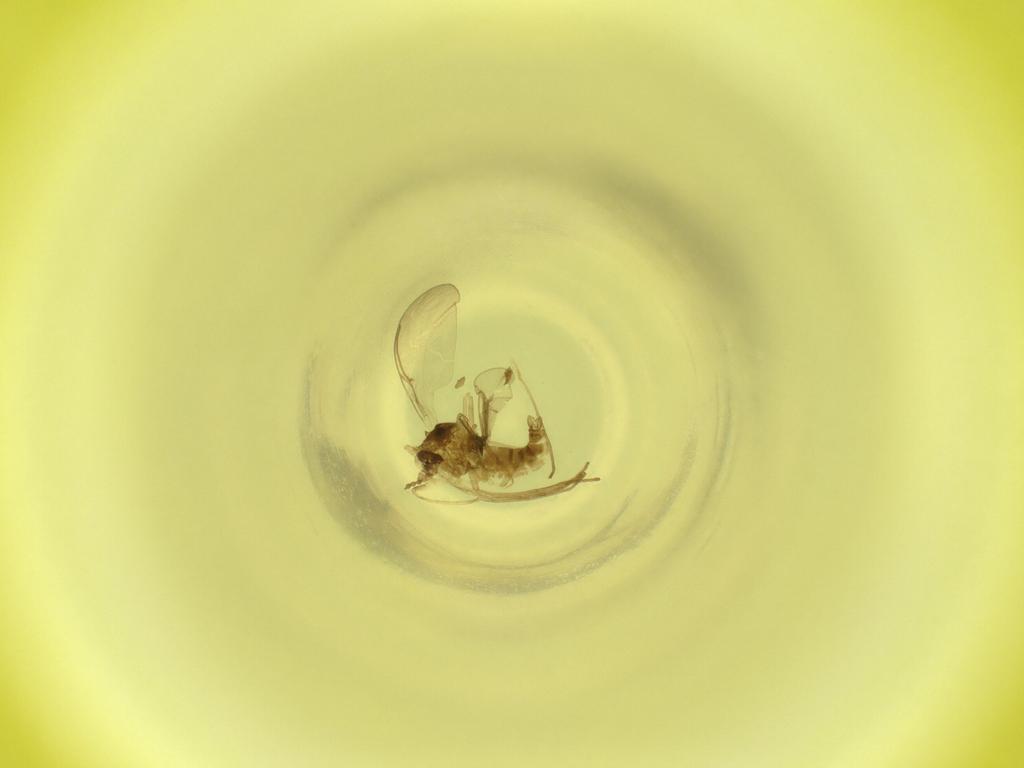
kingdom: Animalia
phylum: Arthropoda
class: Insecta
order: Diptera
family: Cecidomyiidae
